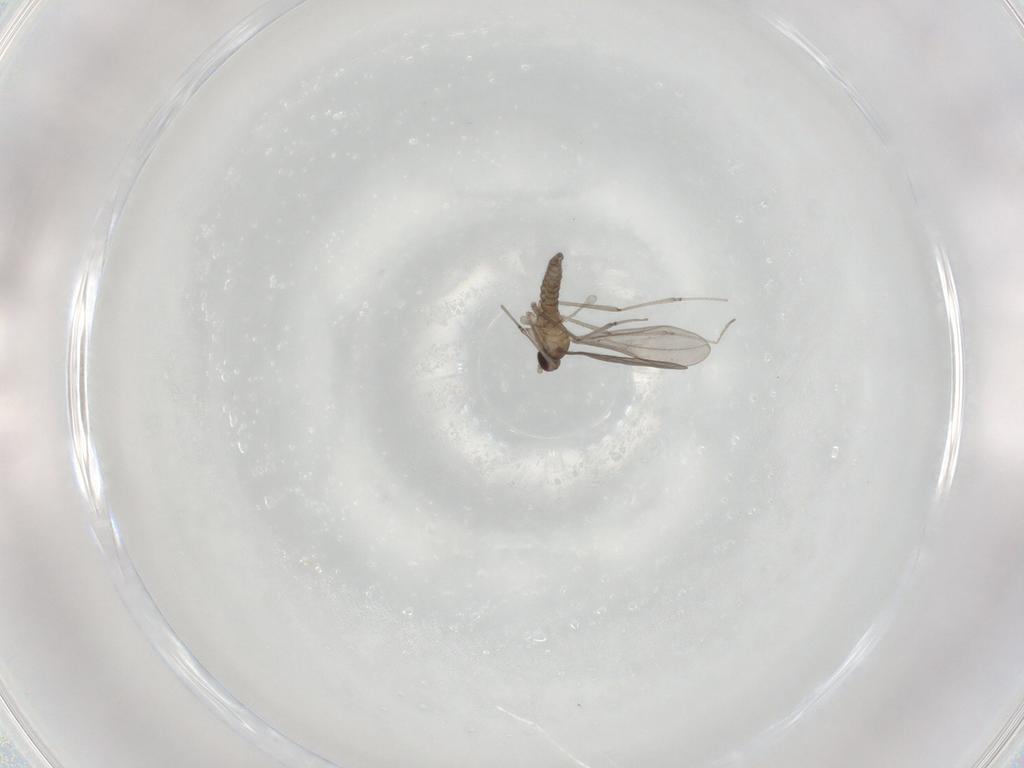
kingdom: Animalia
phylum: Arthropoda
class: Insecta
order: Diptera
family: Cecidomyiidae
